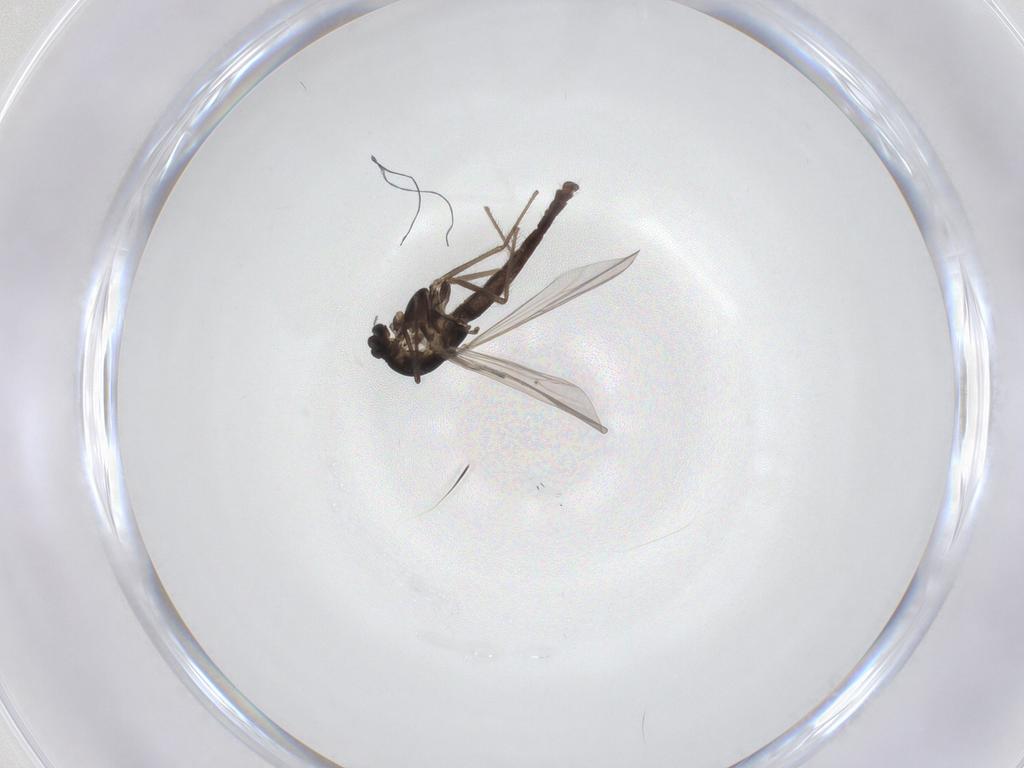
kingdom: Animalia
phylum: Arthropoda
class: Insecta
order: Diptera
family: Chironomidae
